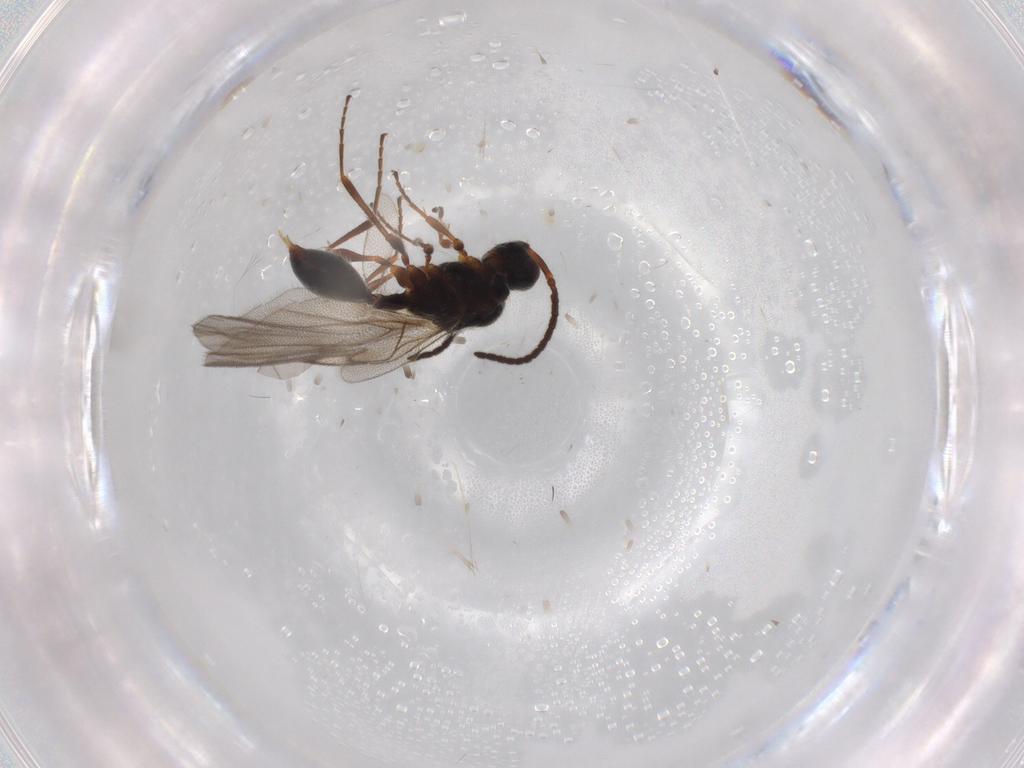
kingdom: Animalia
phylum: Arthropoda
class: Insecta
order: Hymenoptera
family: Diapriidae
